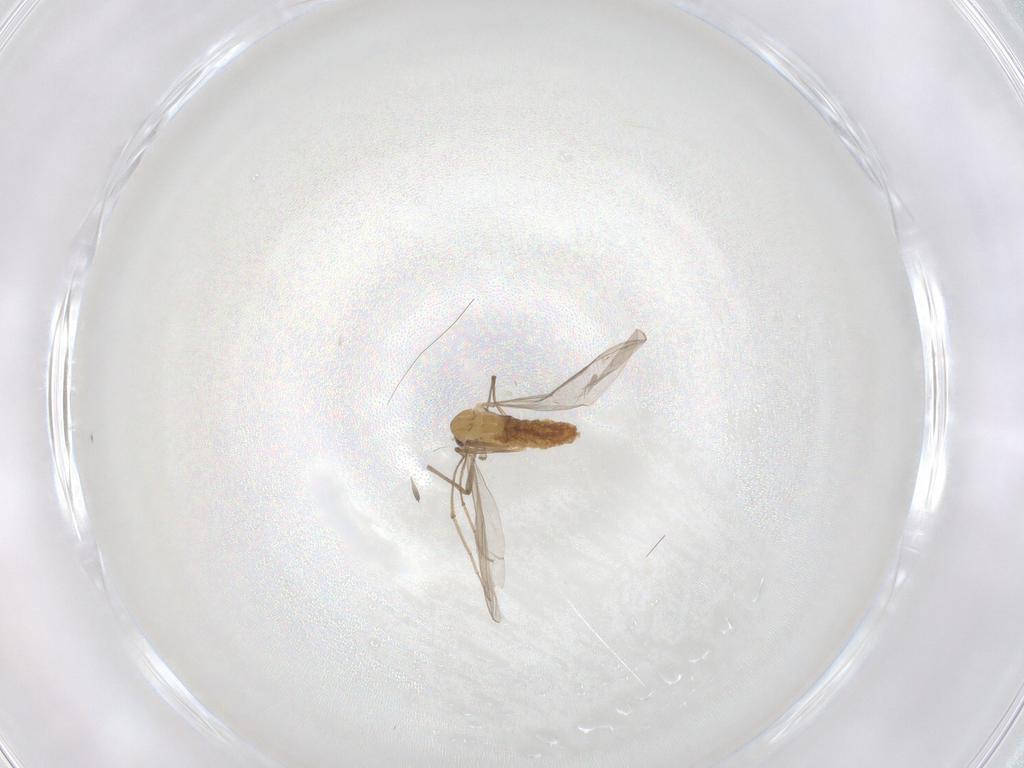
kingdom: Animalia
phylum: Arthropoda
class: Insecta
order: Diptera
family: Chironomidae
